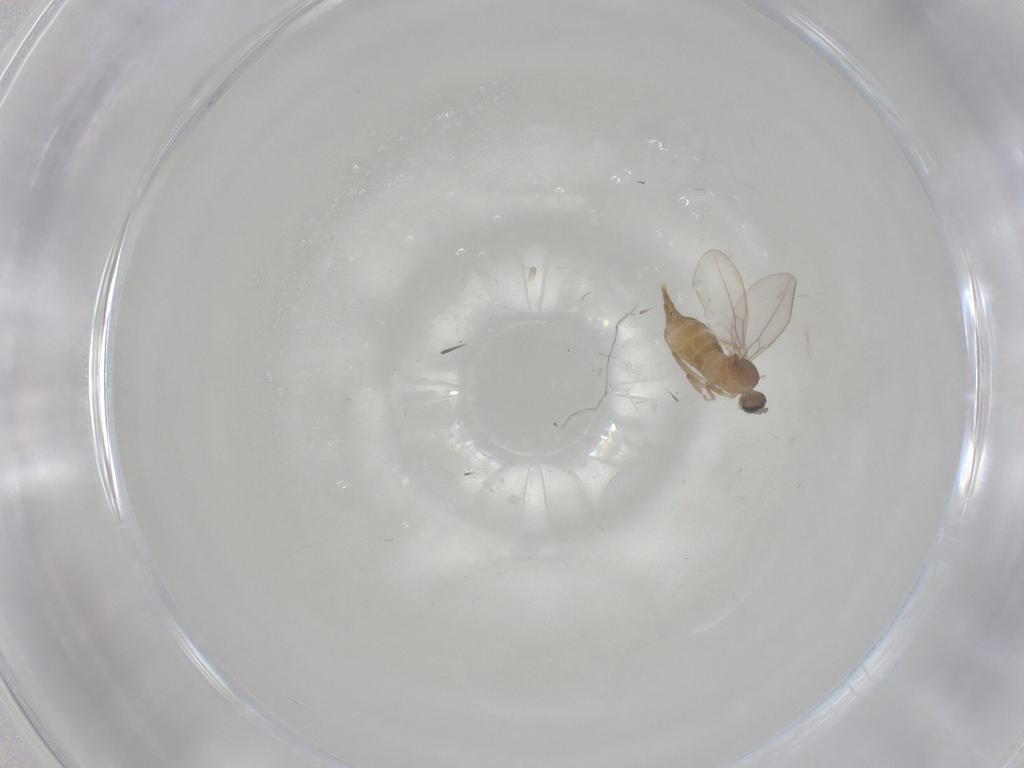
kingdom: Animalia
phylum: Arthropoda
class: Insecta
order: Diptera
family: Cecidomyiidae
